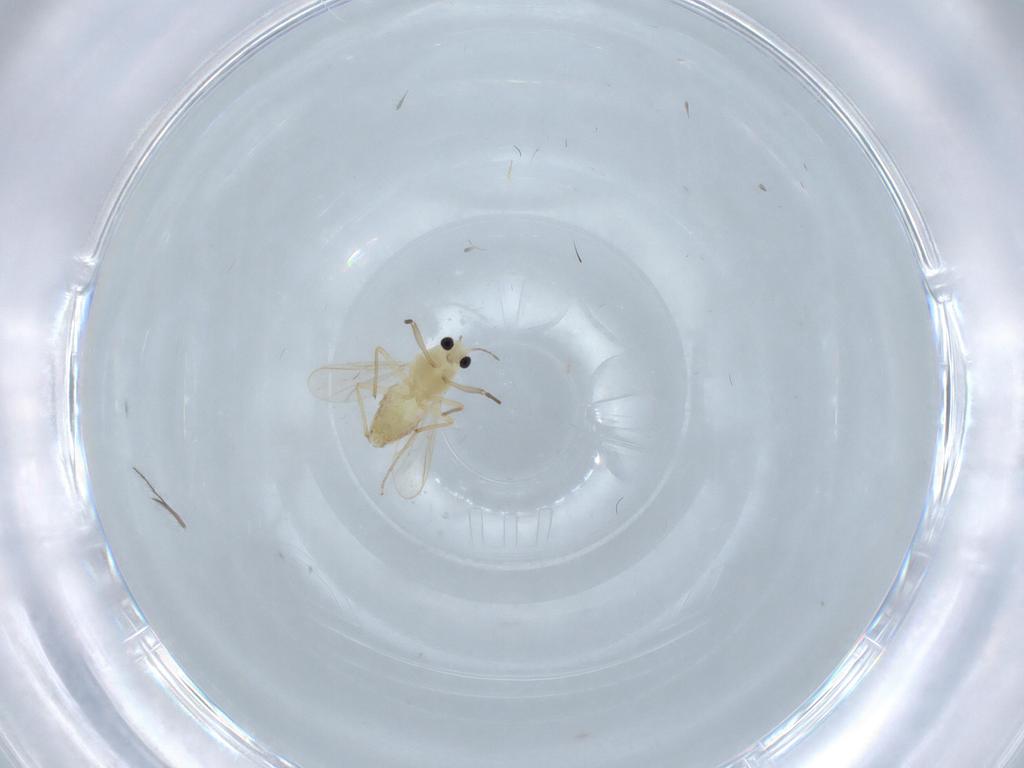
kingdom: Animalia
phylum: Arthropoda
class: Insecta
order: Diptera
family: Chironomidae
